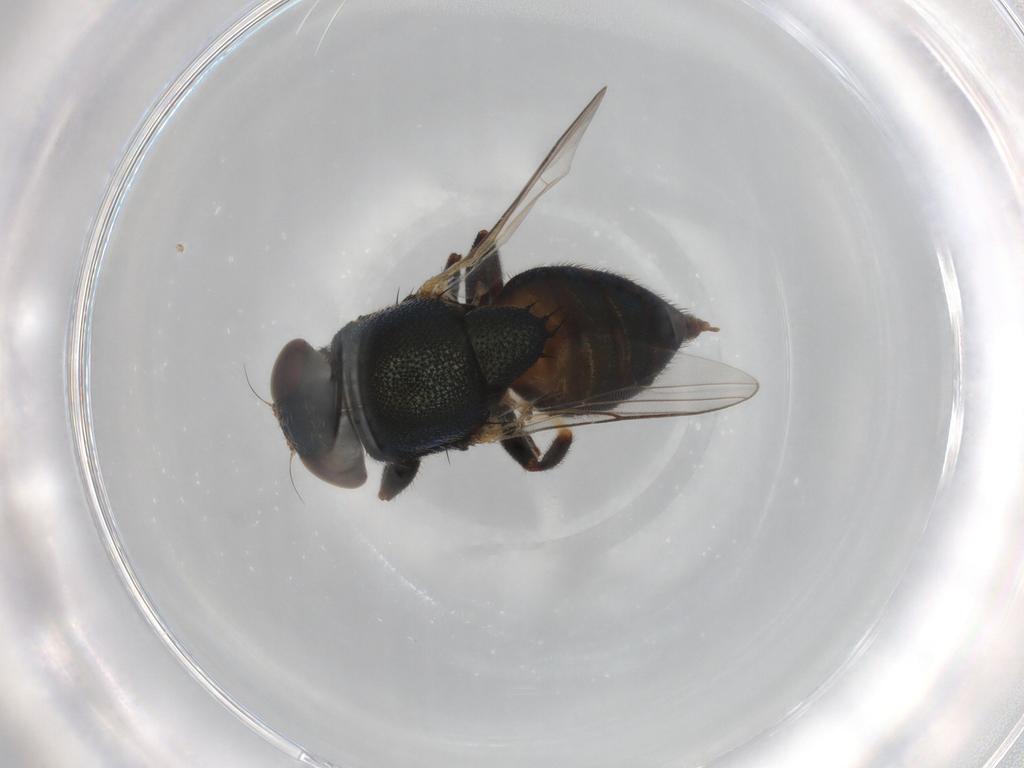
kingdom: Animalia
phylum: Arthropoda
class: Insecta
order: Diptera
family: Chloropidae
